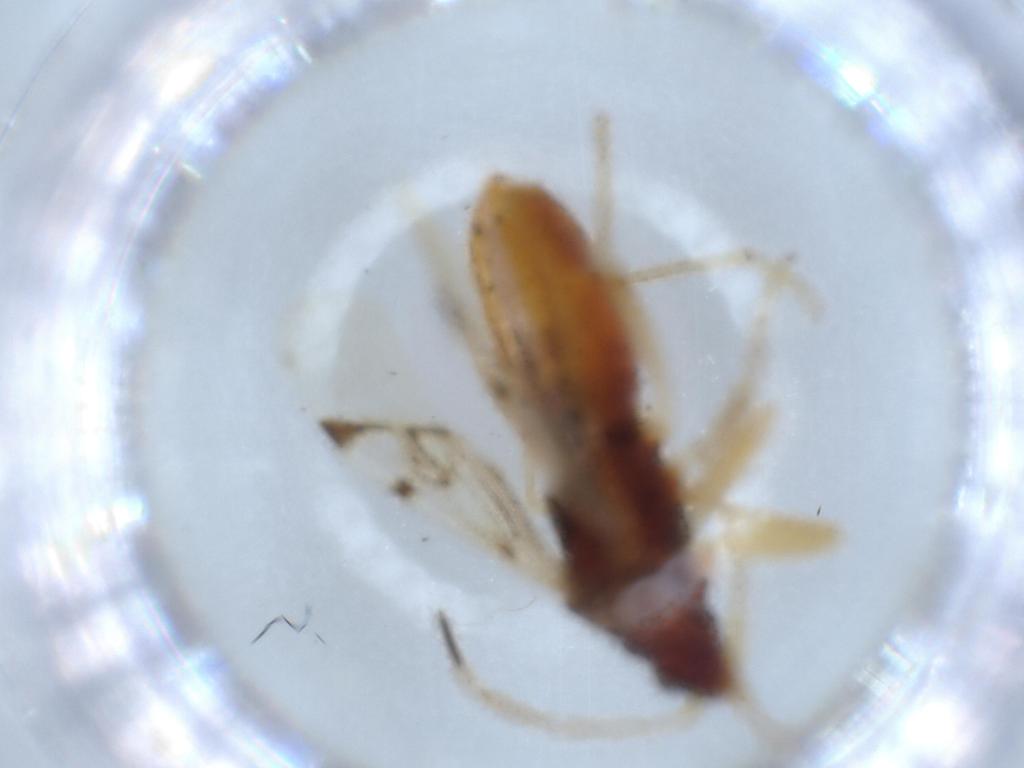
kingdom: Animalia
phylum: Arthropoda
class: Insecta
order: Hemiptera
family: Rhyparochromidae
